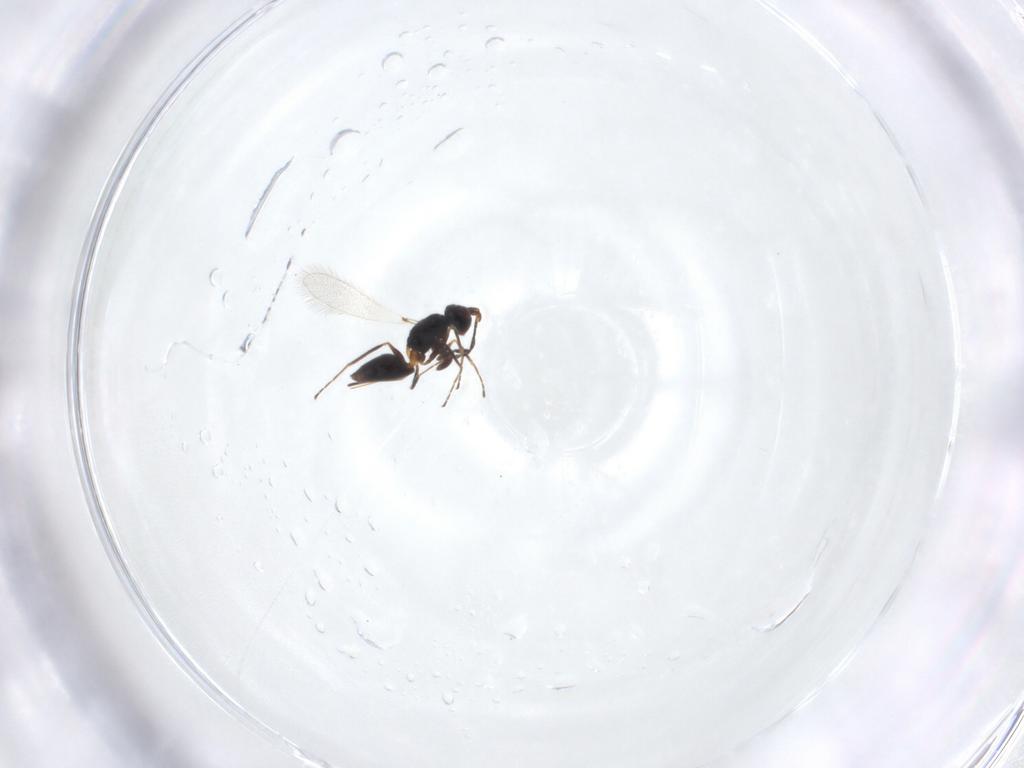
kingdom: Animalia
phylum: Arthropoda
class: Insecta
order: Hymenoptera
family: Mymaridae
